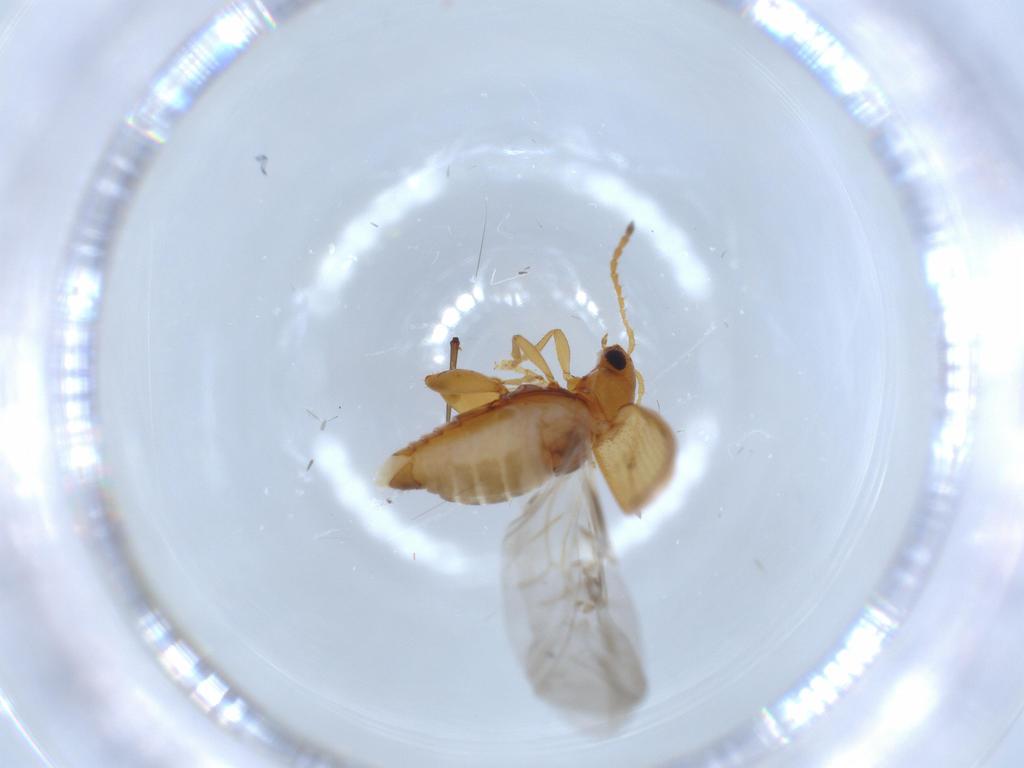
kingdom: Animalia
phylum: Arthropoda
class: Insecta
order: Coleoptera
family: Chrysomelidae
